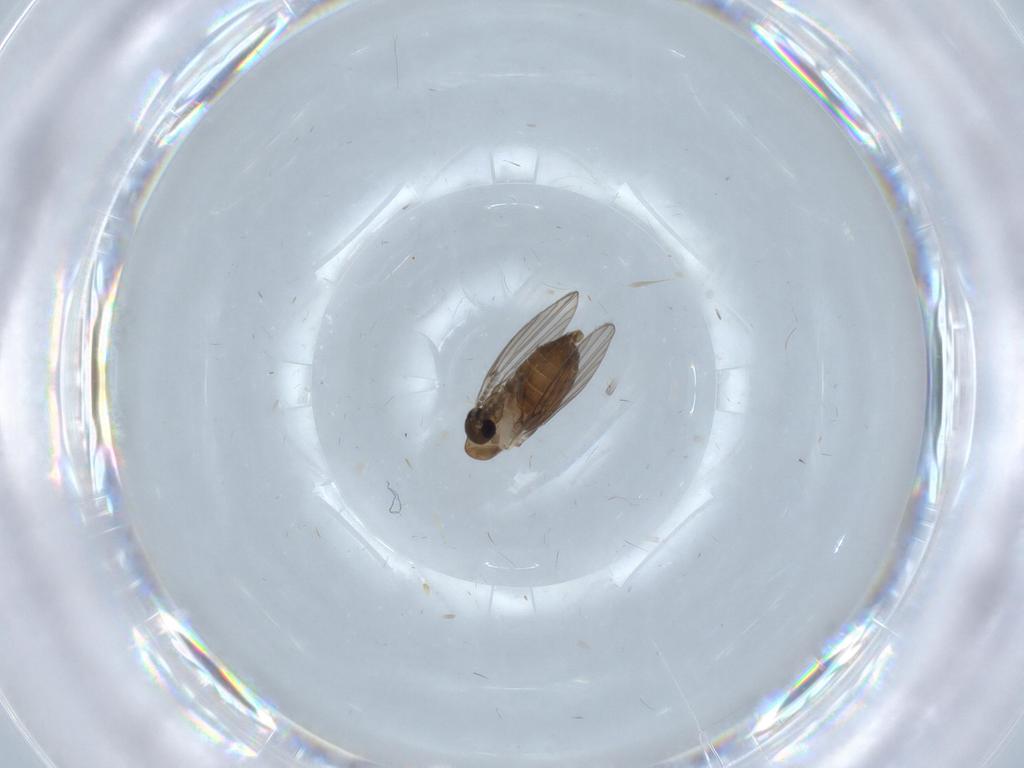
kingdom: Animalia
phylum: Arthropoda
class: Insecta
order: Diptera
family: Psychodidae
